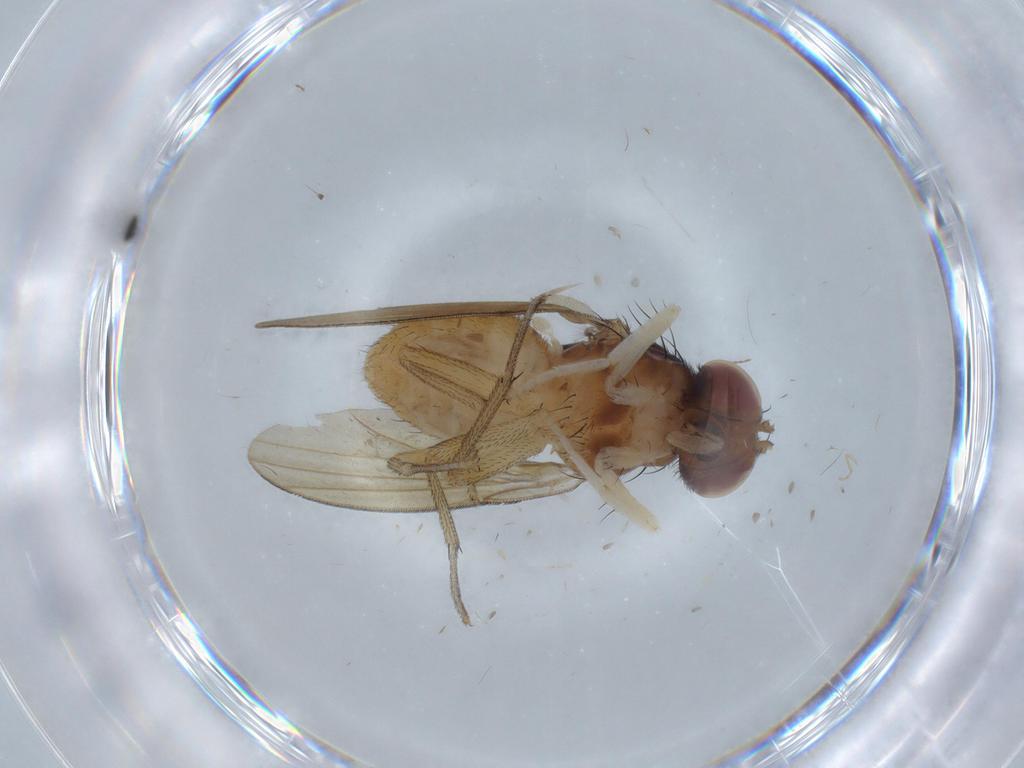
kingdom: Animalia
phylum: Arthropoda
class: Insecta
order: Diptera
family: Lauxaniidae
